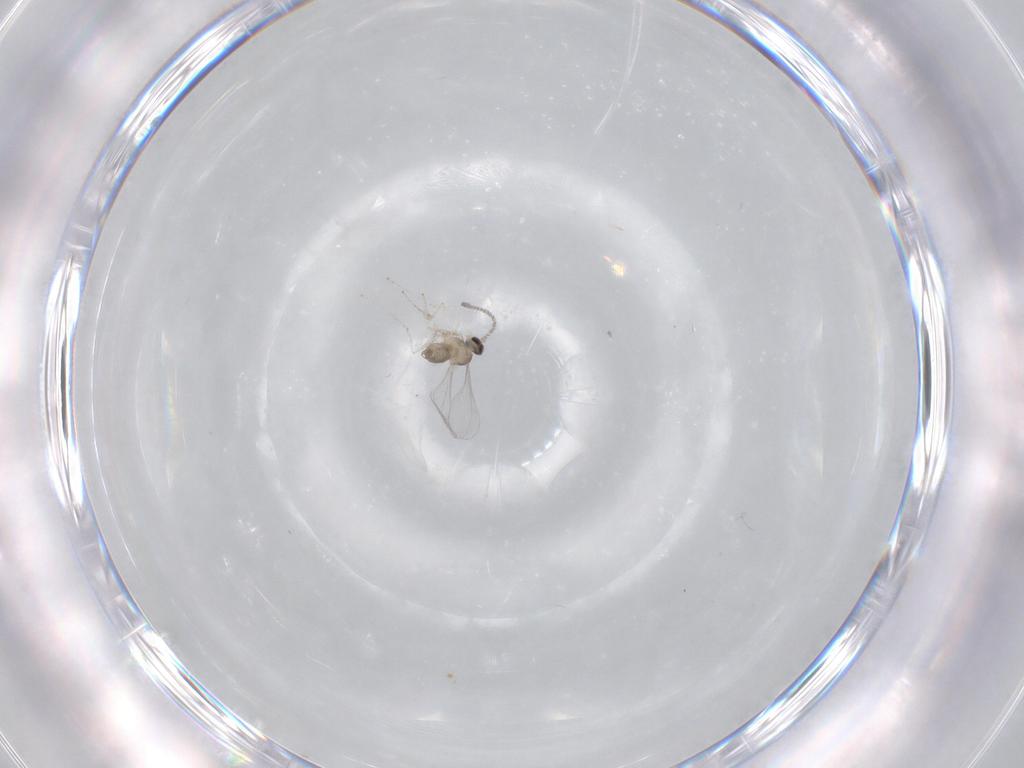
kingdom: Animalia
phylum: Arthropoda
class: Insecta
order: Diptera
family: Cecidomyiidae
